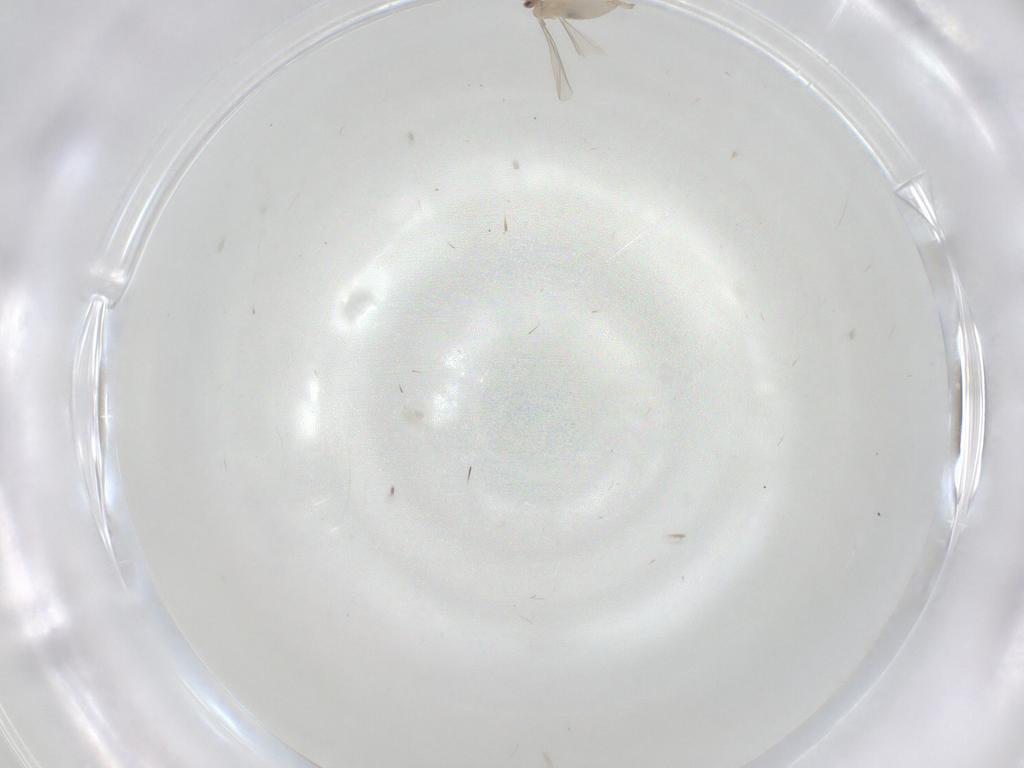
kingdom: Animalia
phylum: Arthropoda
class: Insecta
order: Diptera
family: Cecidomyiidae
